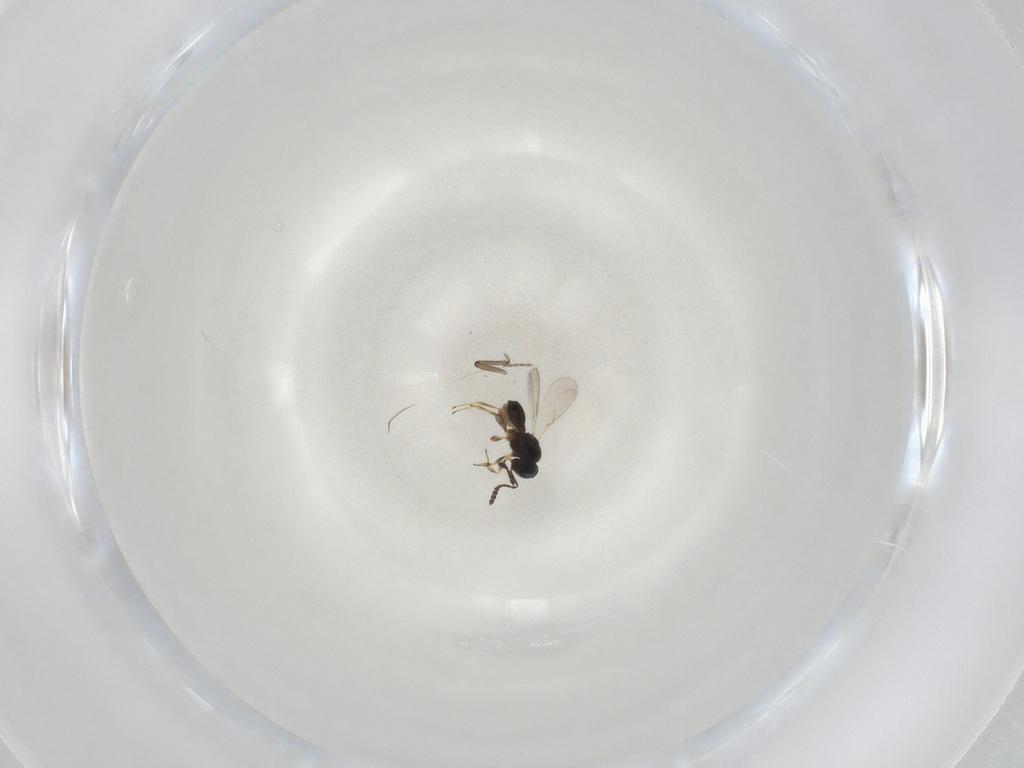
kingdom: Animalia
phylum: Arthropoda
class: Insecta
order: Hymenoptera
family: Scelionidae
